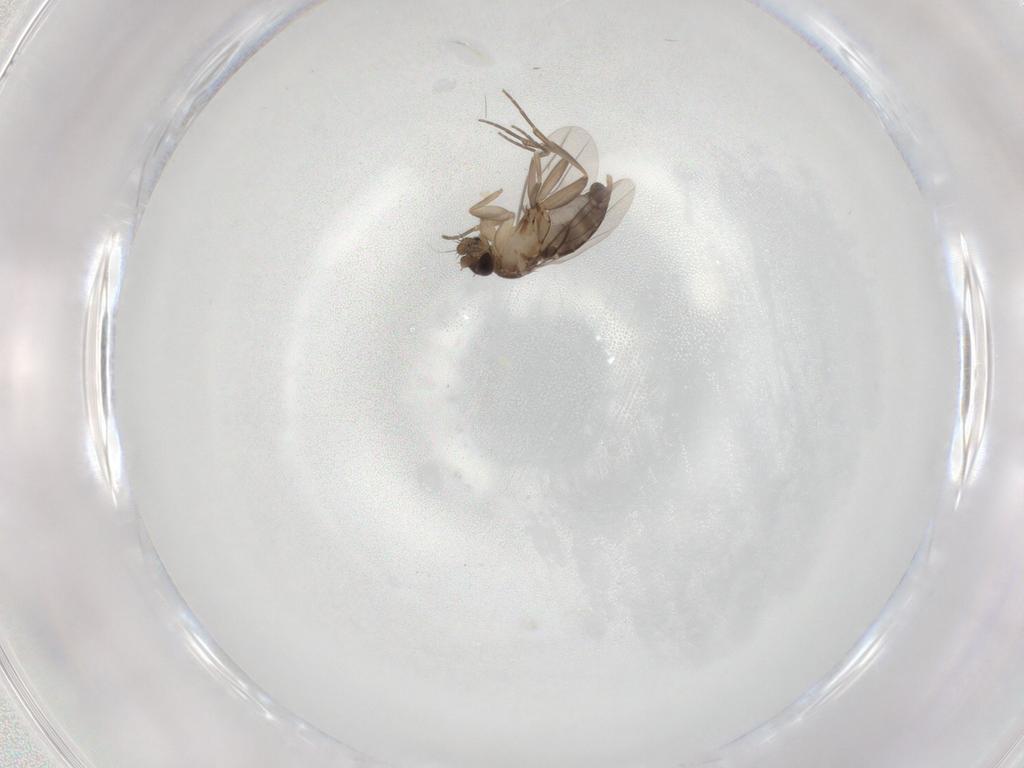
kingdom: Animalia
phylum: Arthropoda
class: Insecta
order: Diptera
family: Phoridae
